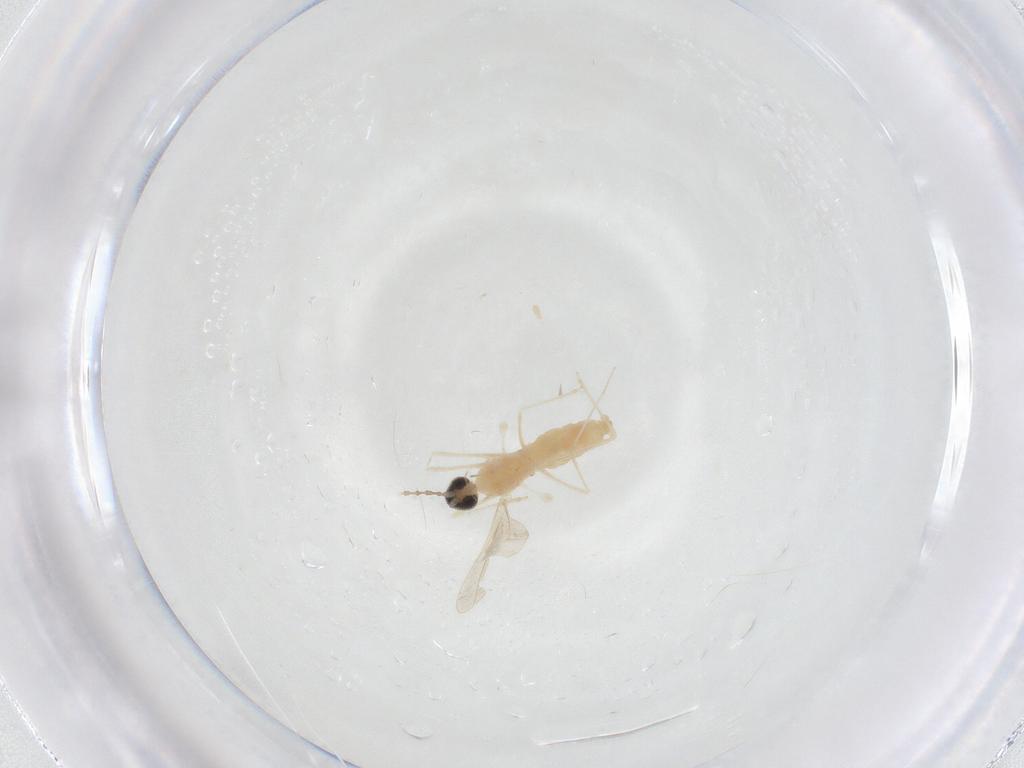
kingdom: Animalia
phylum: Arthropoda
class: Insecta
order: Diptera
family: Cecidomyiidae
